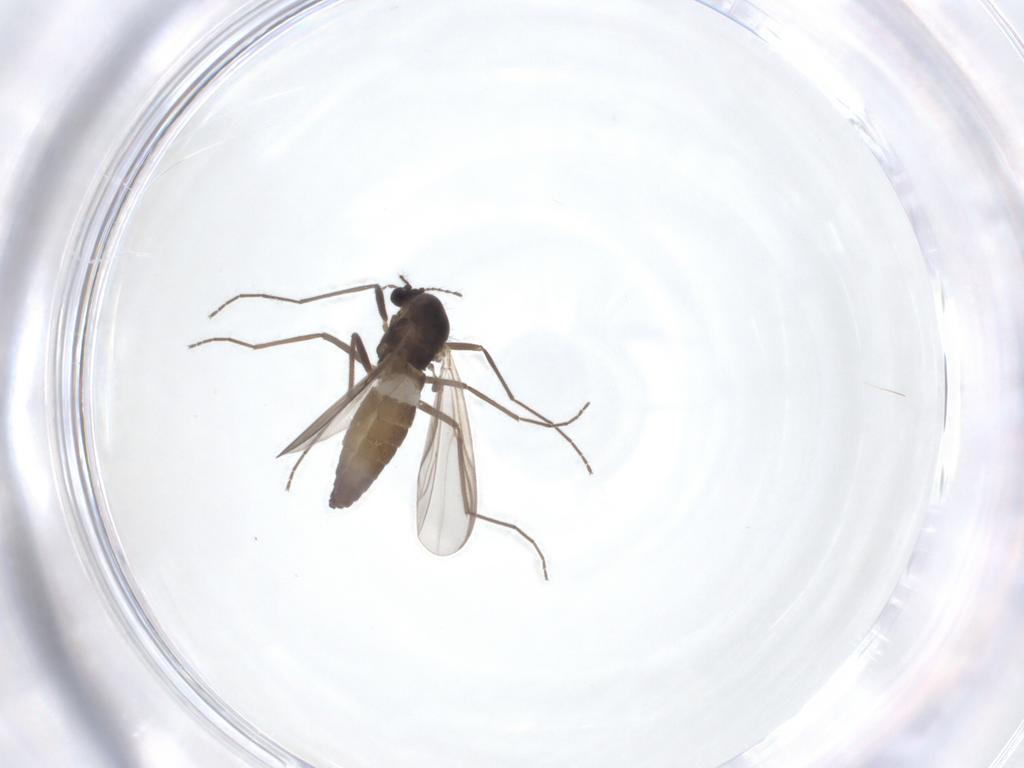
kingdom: Animalia
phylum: Arthropoda
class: Insecta
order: Diptera
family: Chironomidae
